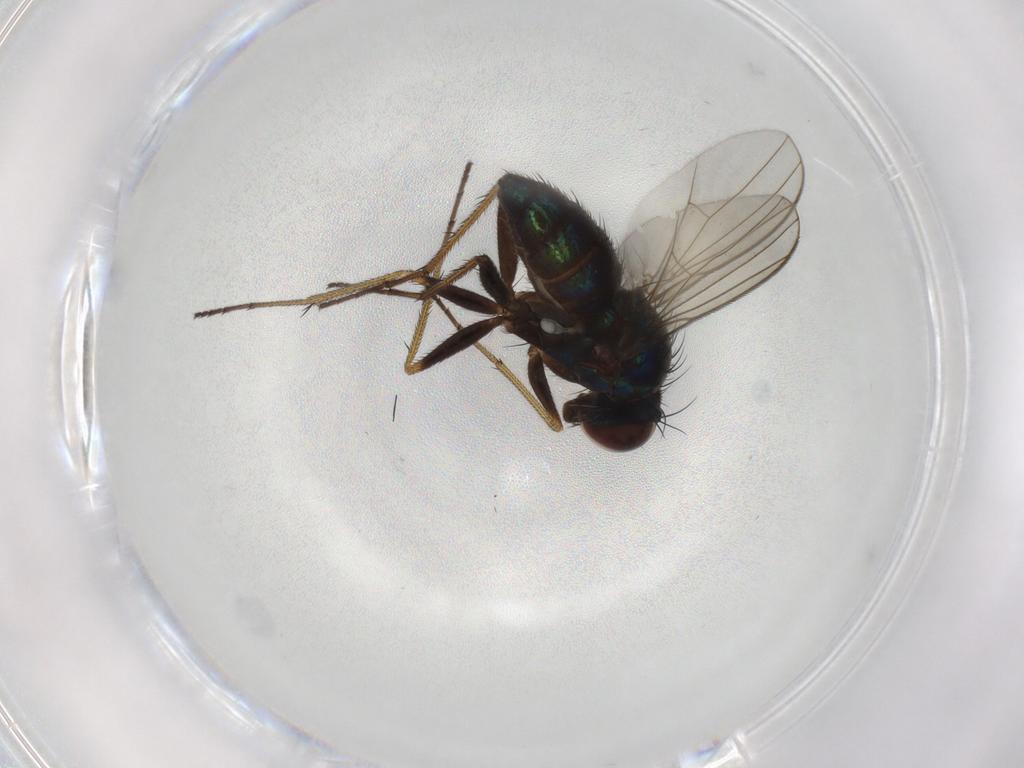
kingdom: Animalia
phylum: Arthropoda
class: Insecta
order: Diptera
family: Dolichopodidae
